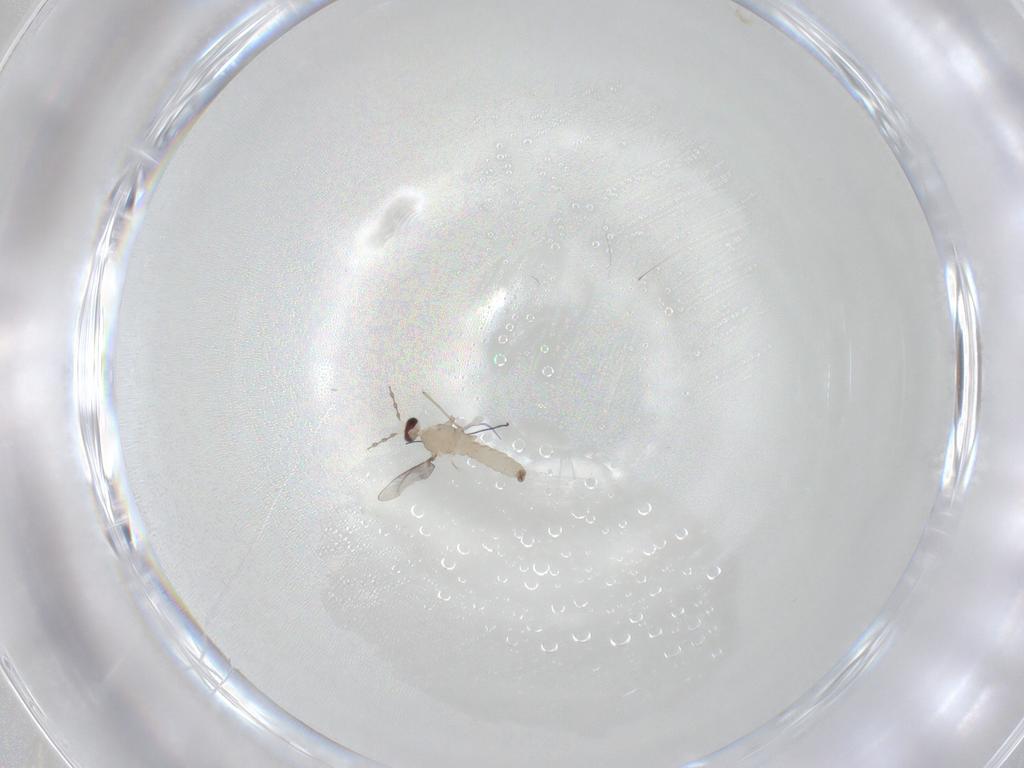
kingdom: Animalia
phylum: Arthropoda
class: Insecta
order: Diptera
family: Cecidomyiidae
